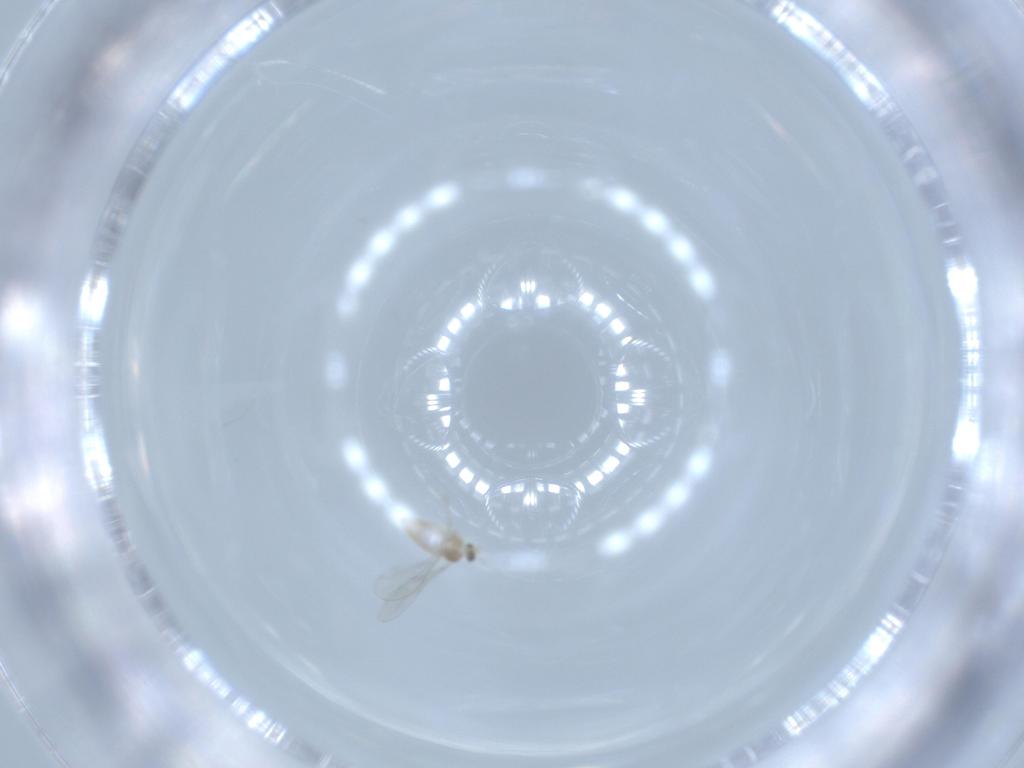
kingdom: Animalia
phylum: Arthropoda
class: Insecta
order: Diptera
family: Cecidomyiidae
